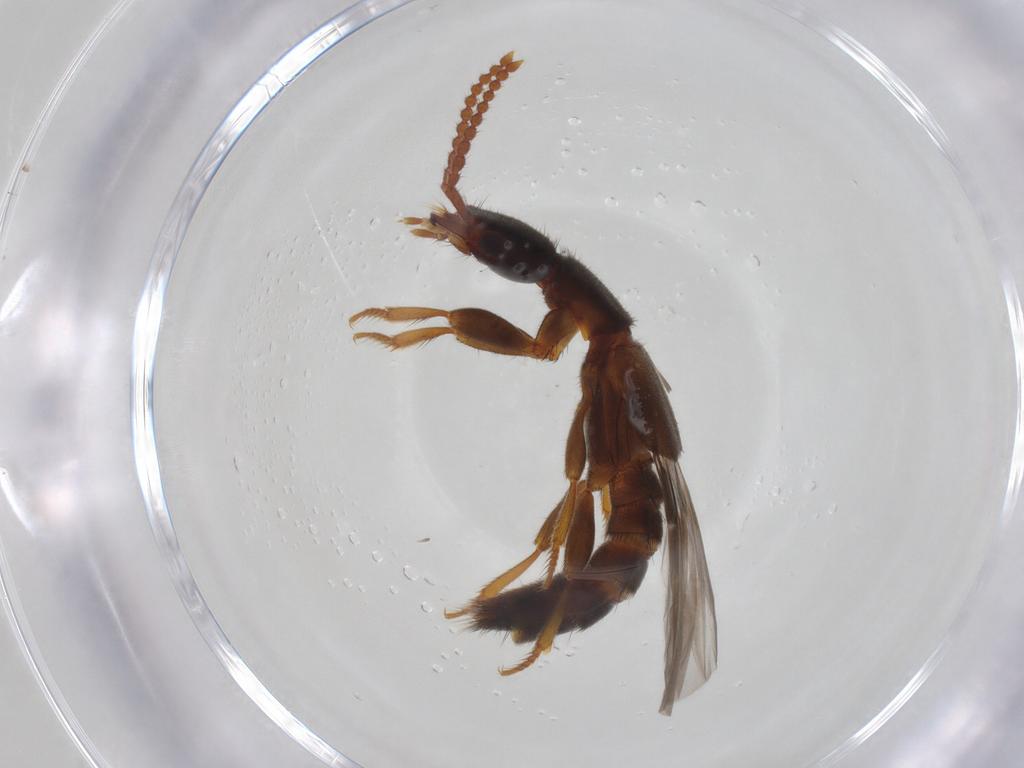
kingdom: Animalia
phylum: Arthropoda
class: Insecta
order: Coleoptera
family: Staphylinidae
